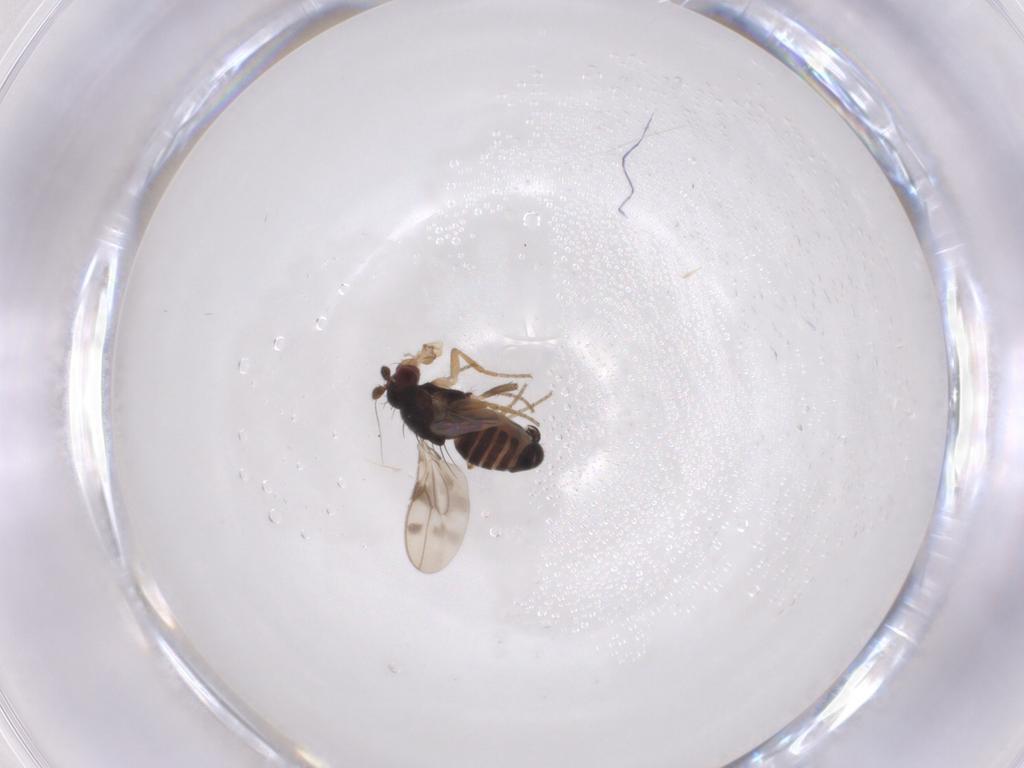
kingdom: Animalia
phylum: Arthropoda
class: Insecta
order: Diptera
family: Sphaeroceridae
